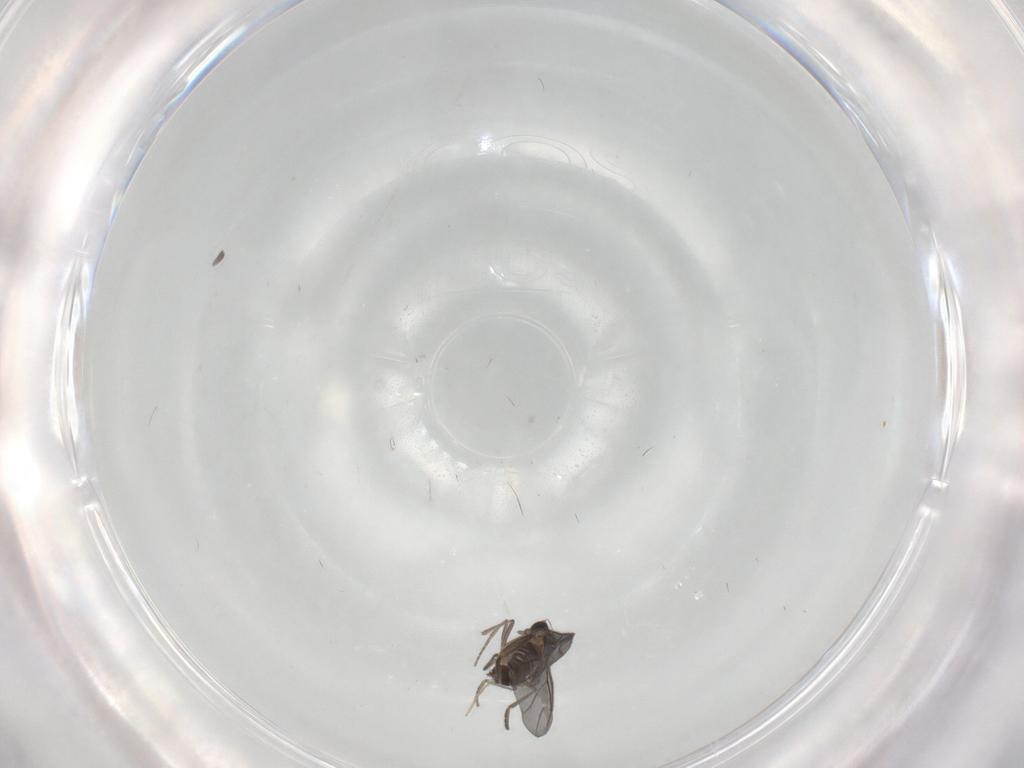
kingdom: Animalia
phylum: Arthropoda
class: Insecta
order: Diptera
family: Sciaridae
